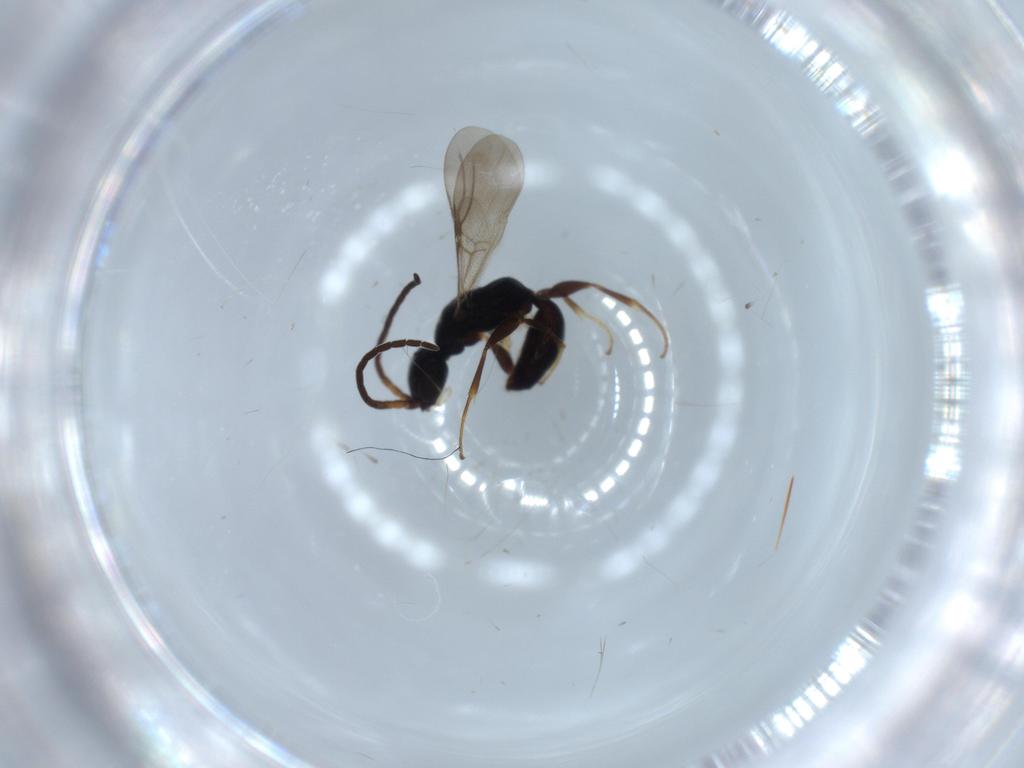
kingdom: Animalia
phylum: Arthropoda
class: Insecta
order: Hymenoptera
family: Bethylidae
